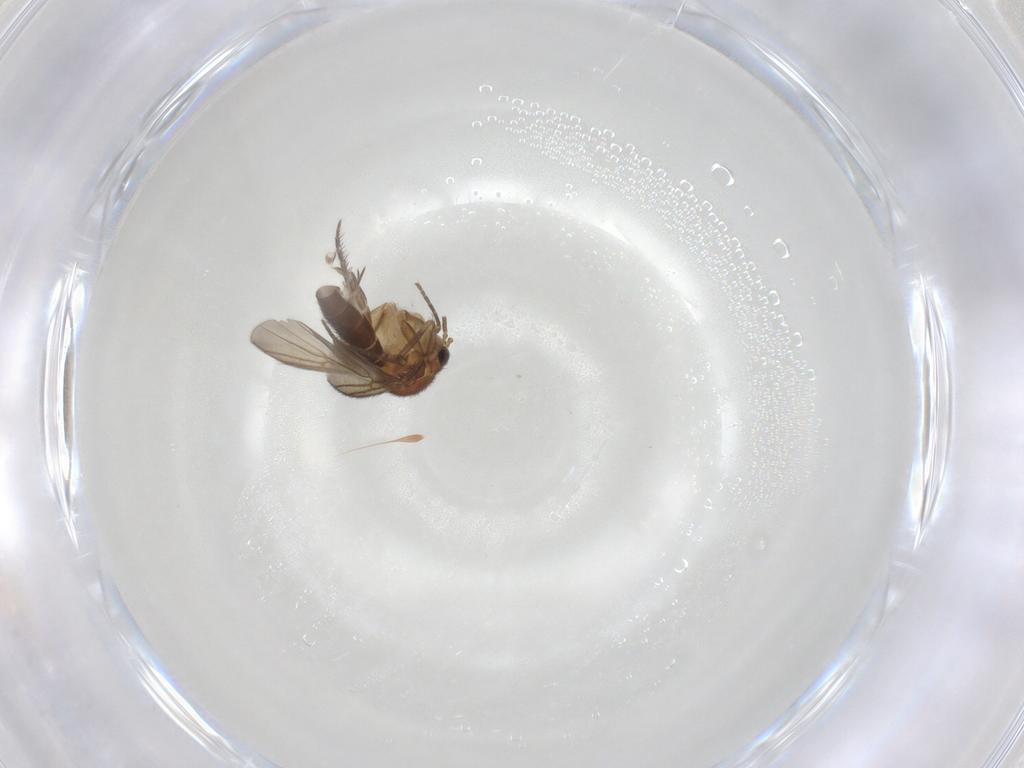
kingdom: Animalia
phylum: Arthropoda
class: Insecta
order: Diptera
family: Mycetophilidae
